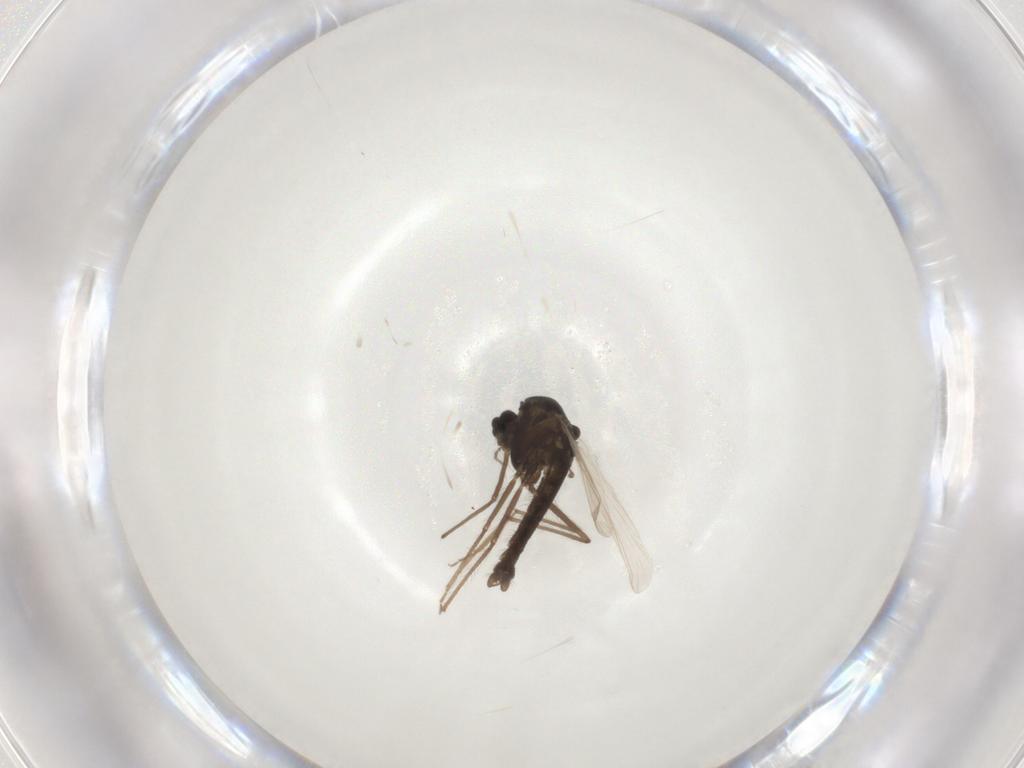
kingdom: Animalia
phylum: Arthropoda
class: Insecta
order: Diptera
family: Chironomidae
